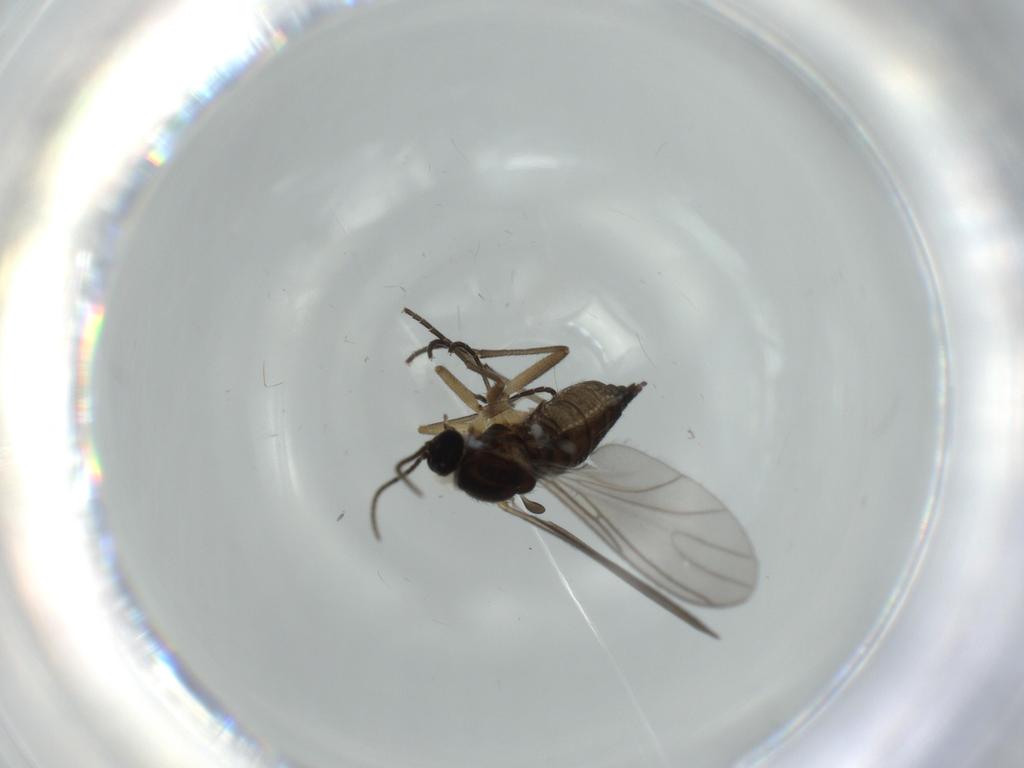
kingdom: Animalia
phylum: Arthropoda
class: Insecta
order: Diptera
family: Sciaridae
